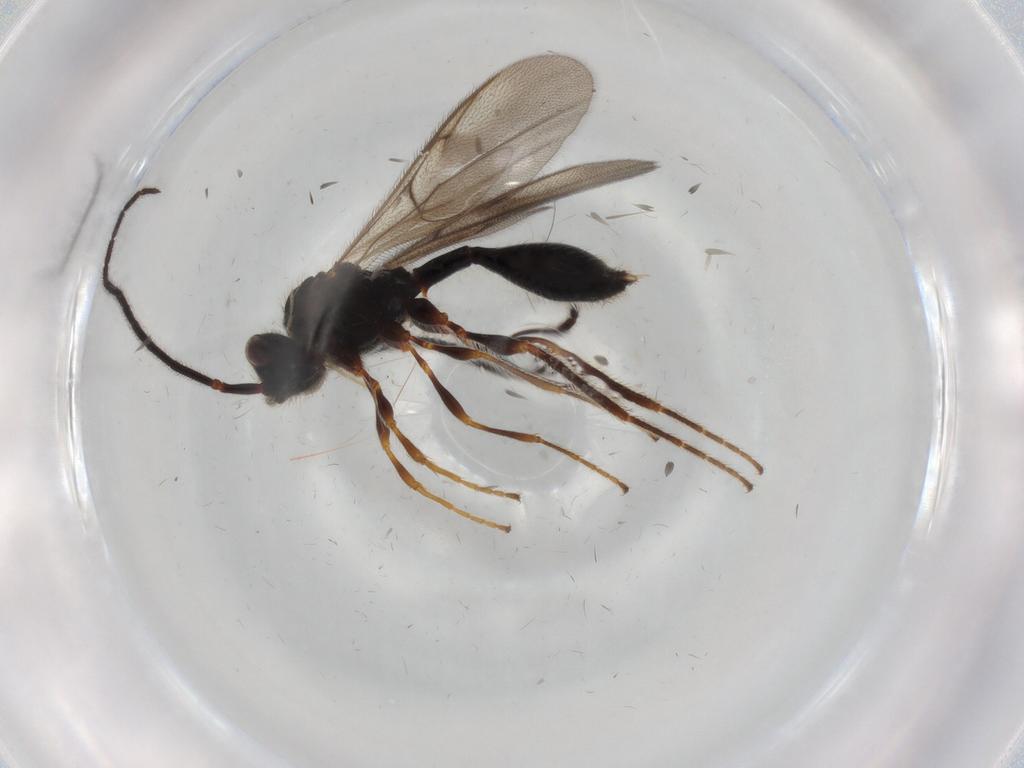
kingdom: Animalia
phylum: Arthropoda
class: Insecta
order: Hymenoptera
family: Diapriidae
